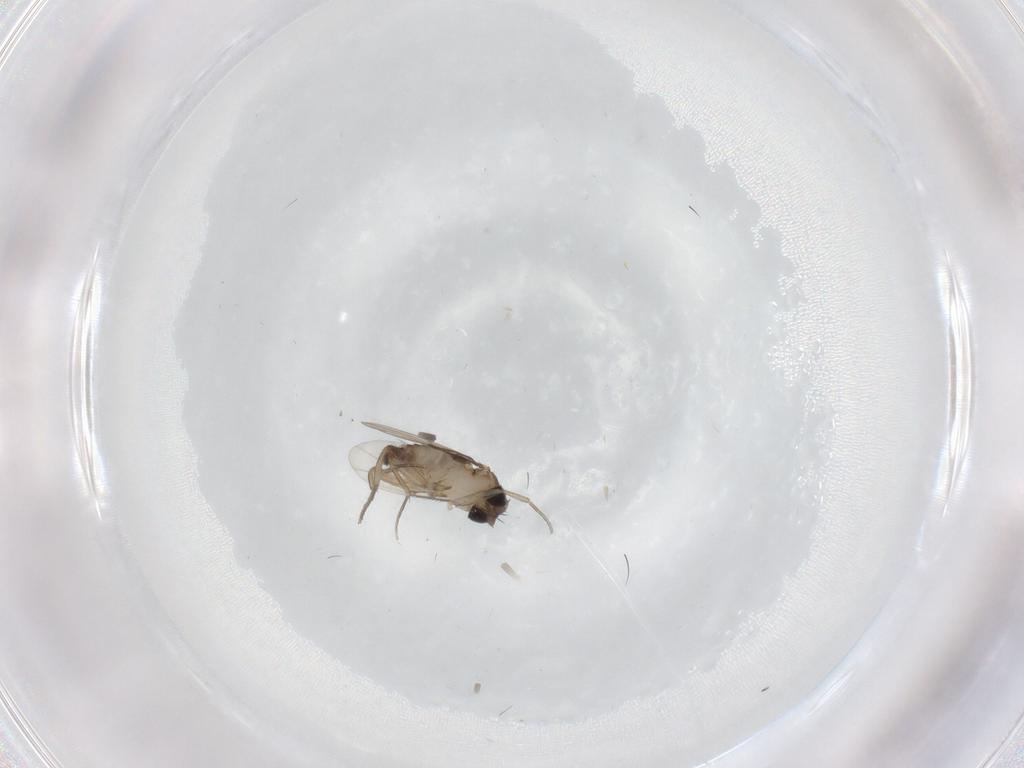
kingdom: Animalia
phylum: Arthropoda
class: Insecta
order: Diptera
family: Phoridae
